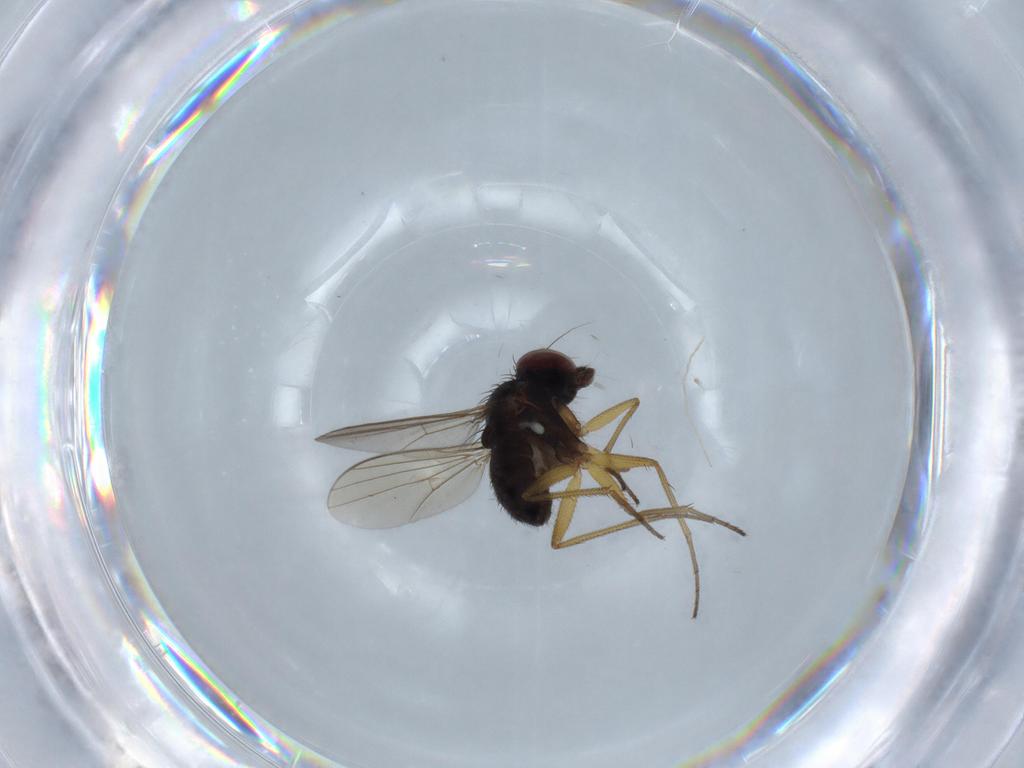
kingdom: Animalia
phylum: Arthropoda
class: Insecta
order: Diptera
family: Dolichopodidae
